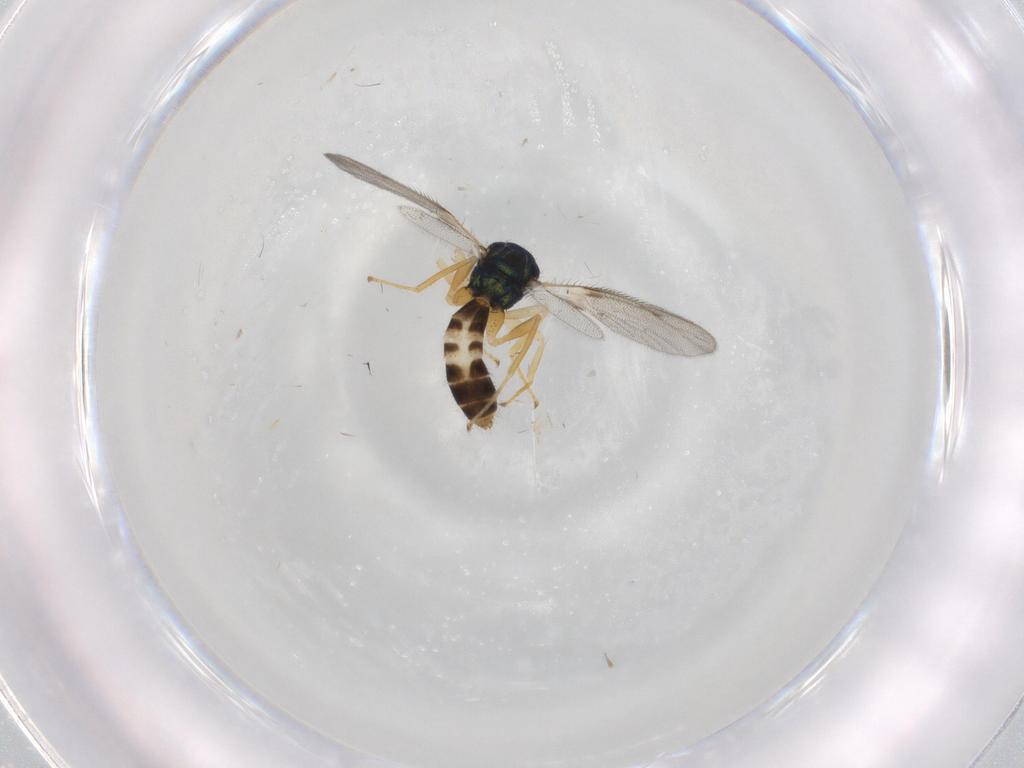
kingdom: Animalia
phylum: Arthropoda
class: Insecta
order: Hymenoptera
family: Pteromalidae
